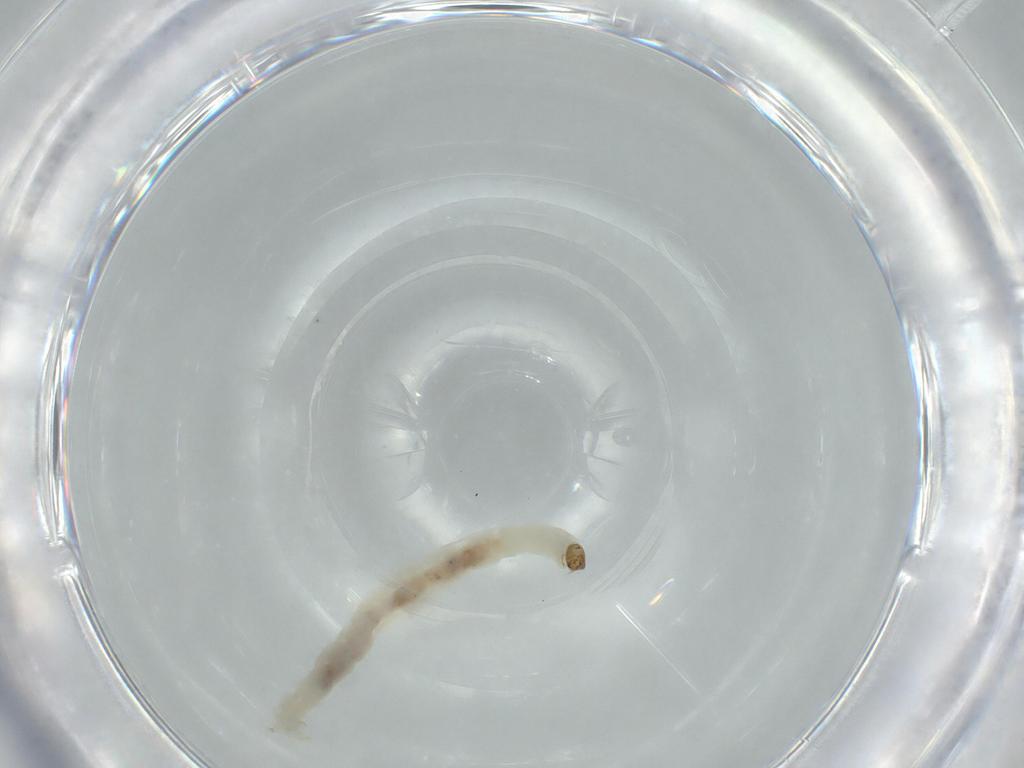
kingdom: Animalia
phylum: Arthropoda
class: Insecta
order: Diptera
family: Chironomidae
